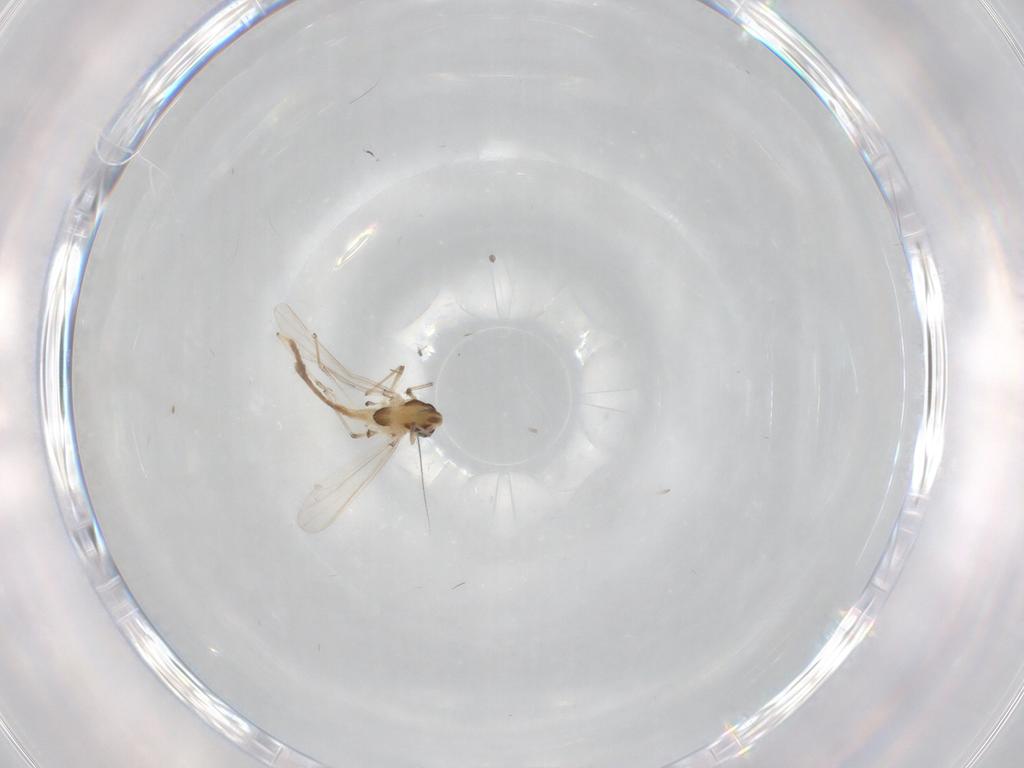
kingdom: Animalia
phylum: Arthropoda
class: Insecta
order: Diptera
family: Chironomidae
